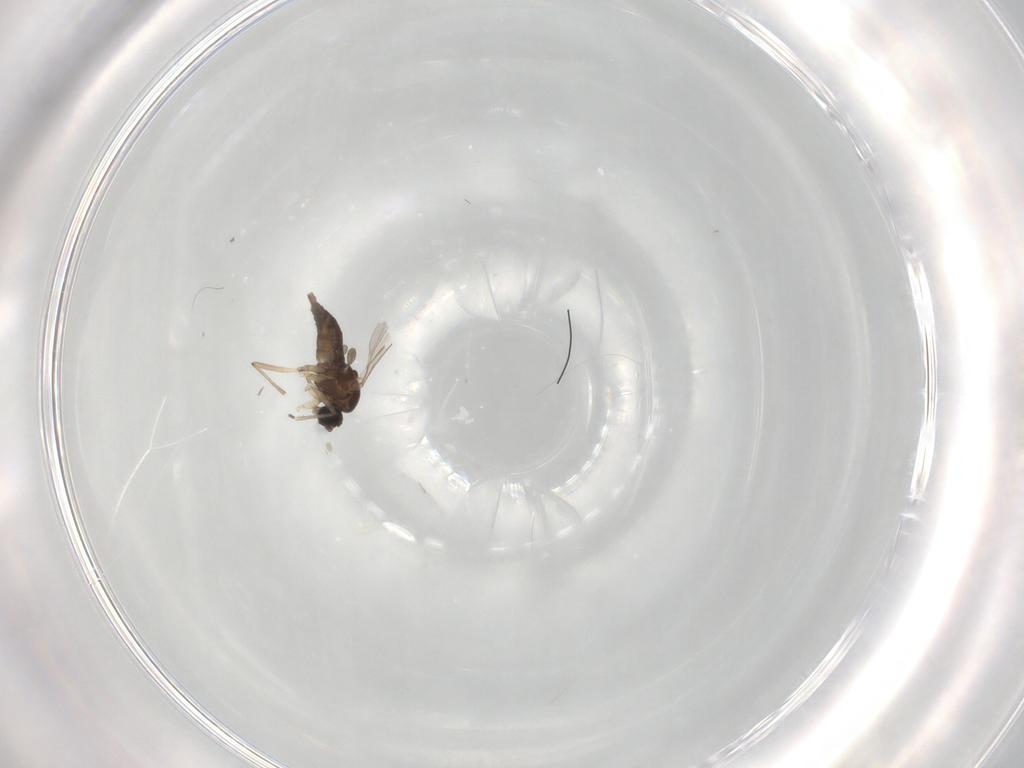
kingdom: Animalia
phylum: Arthropoda
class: Insecta
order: Diptera
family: Sciaridae
